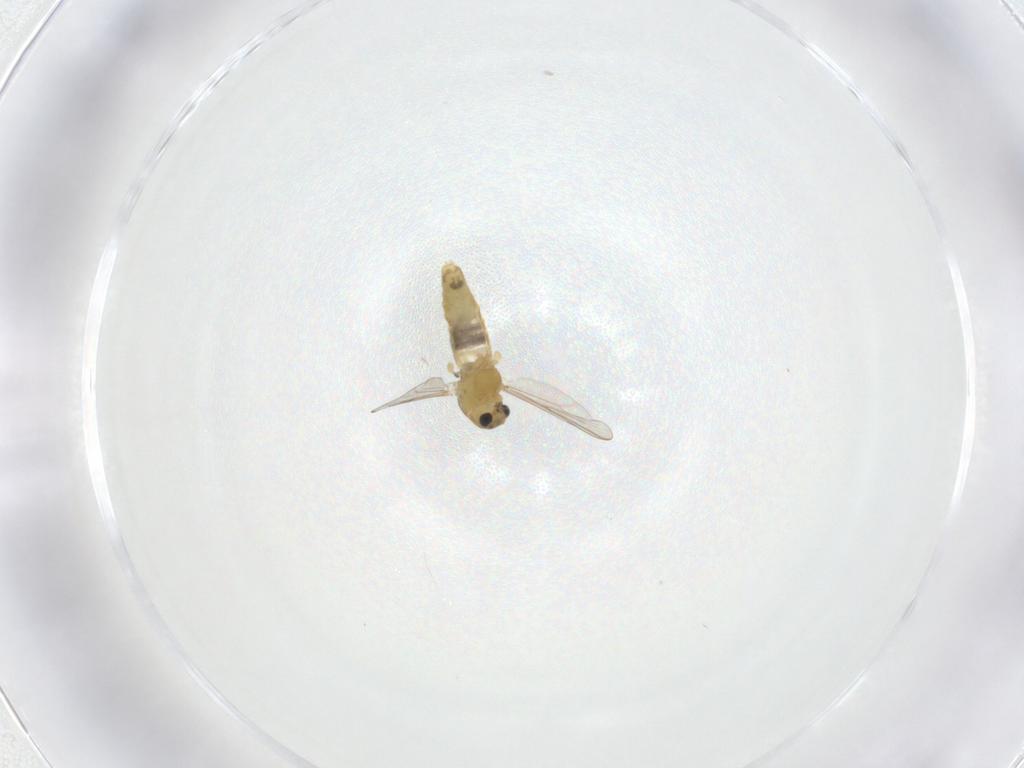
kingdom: Animalia
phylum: Arthropoda
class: Insecta
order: Diptera
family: Chironomidae
